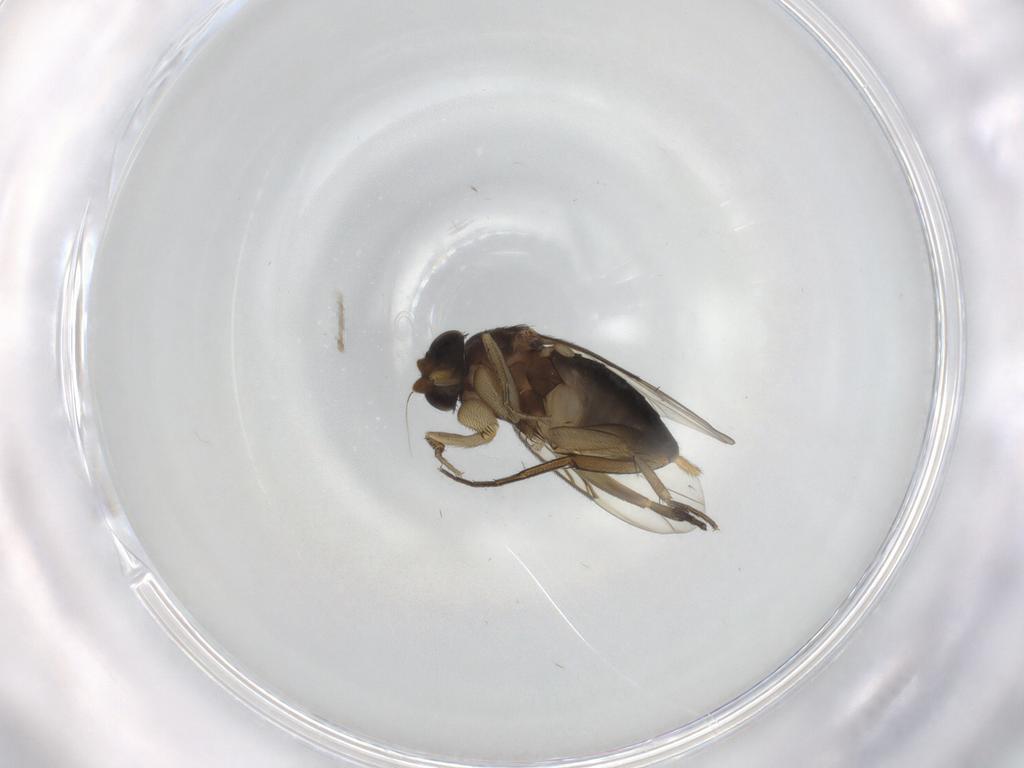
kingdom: Animalia
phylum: Arthropoda
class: Insecta
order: Diptera
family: Phoridae
